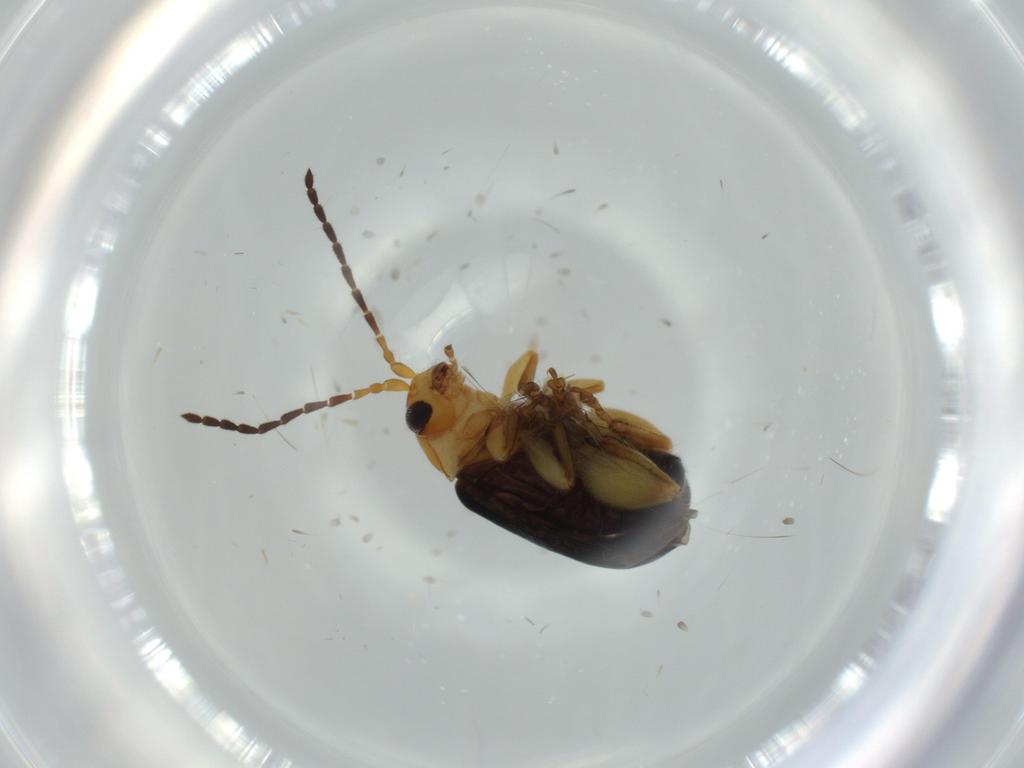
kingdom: Animalia
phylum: Arthropoda
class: Insecta
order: Coleoptera
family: Chrysomelidae
